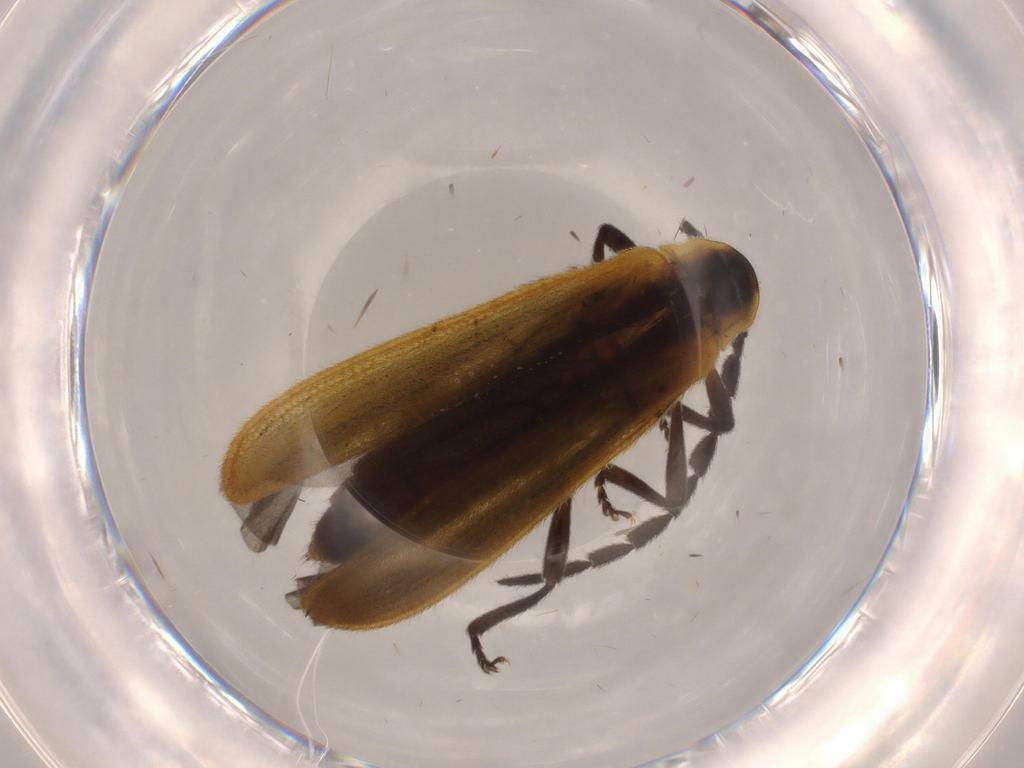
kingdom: Animalia
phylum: Arthropoda
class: Insecta
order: Coleoptera
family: Lycidae
